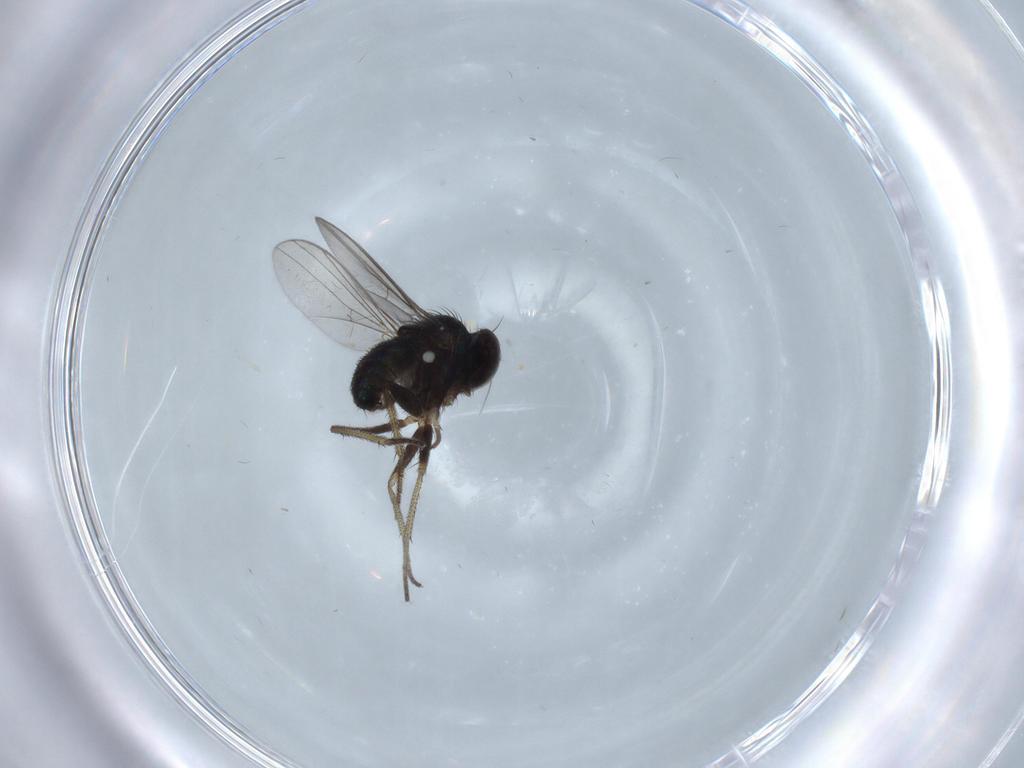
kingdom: Animalia
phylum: Arthropoda
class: Insecta
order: Diptera
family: Dolichopodidae
